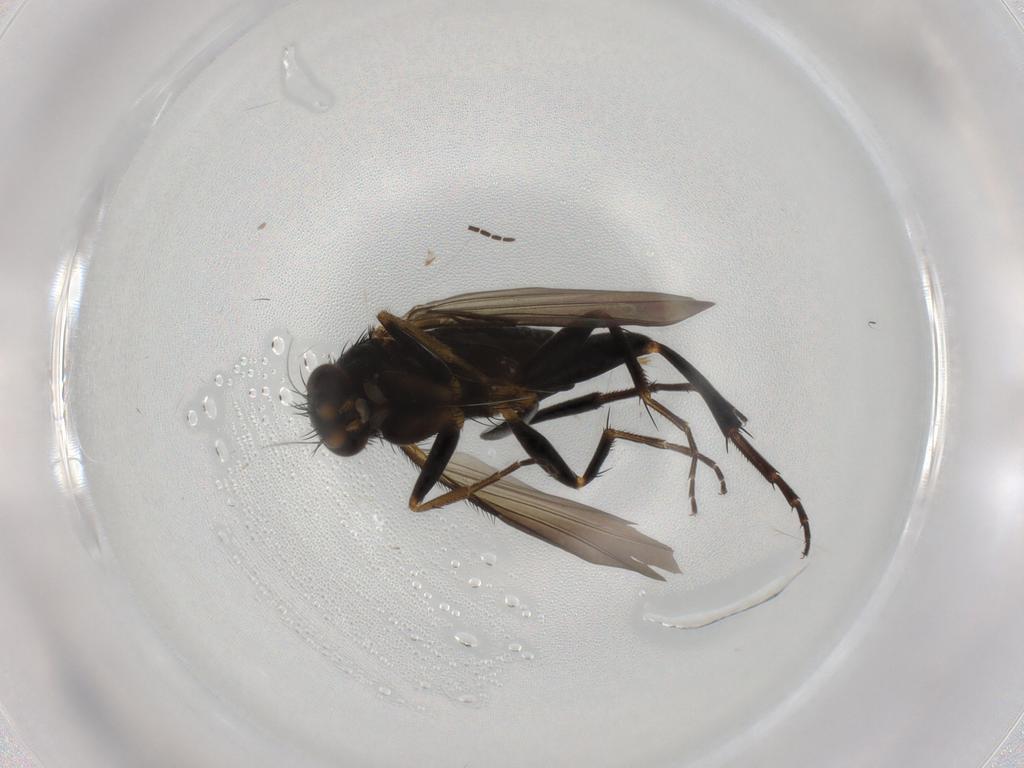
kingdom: Animalia
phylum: Arthropoda
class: Insecta
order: Diptera
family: Phoridae
